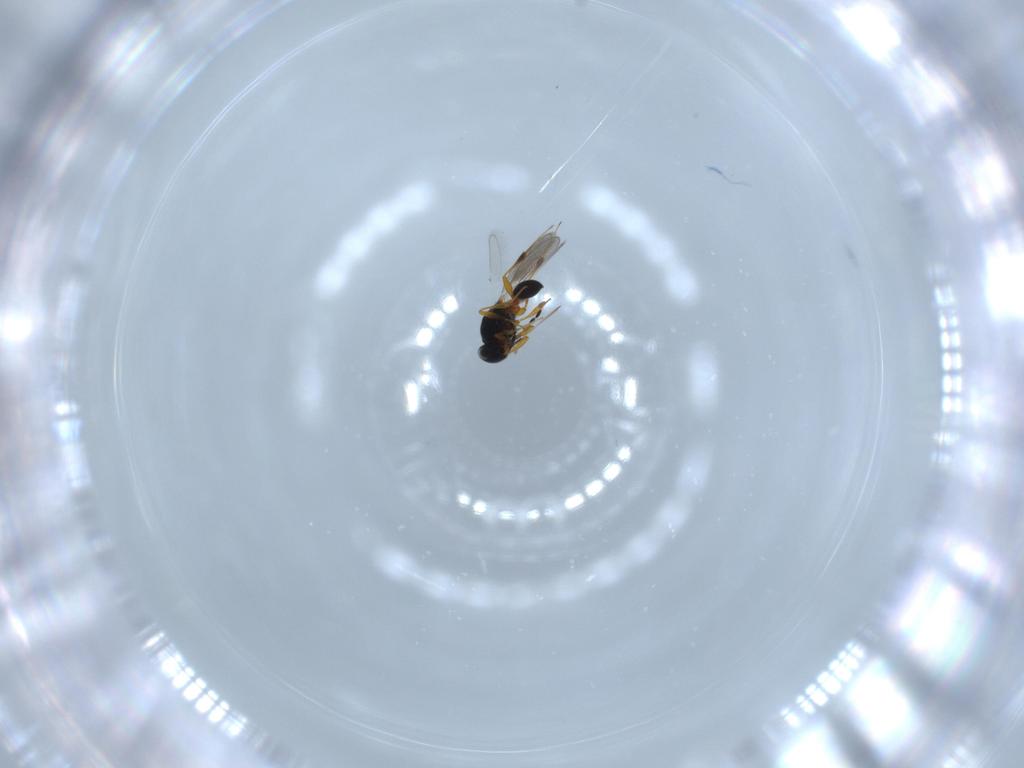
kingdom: Animalia
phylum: Arthropoda
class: Insecta
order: Hymenoptera
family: Platygastridae
